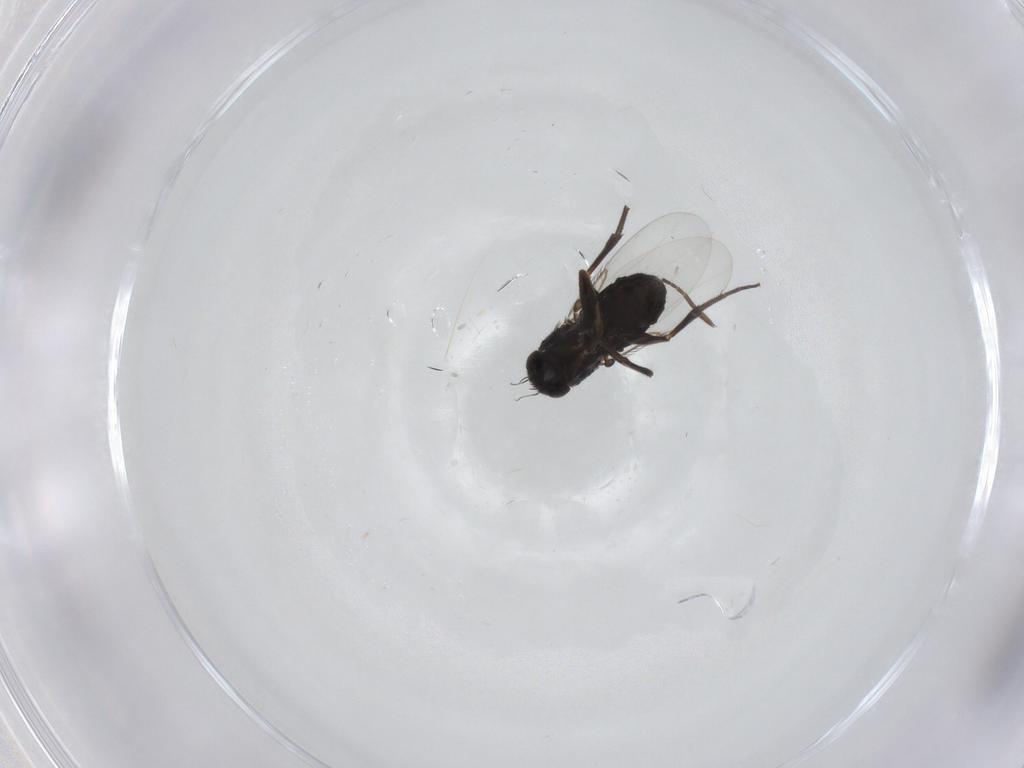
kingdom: Animalia
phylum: Arthropoda
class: Insecta
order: Diptera
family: Phoridae
